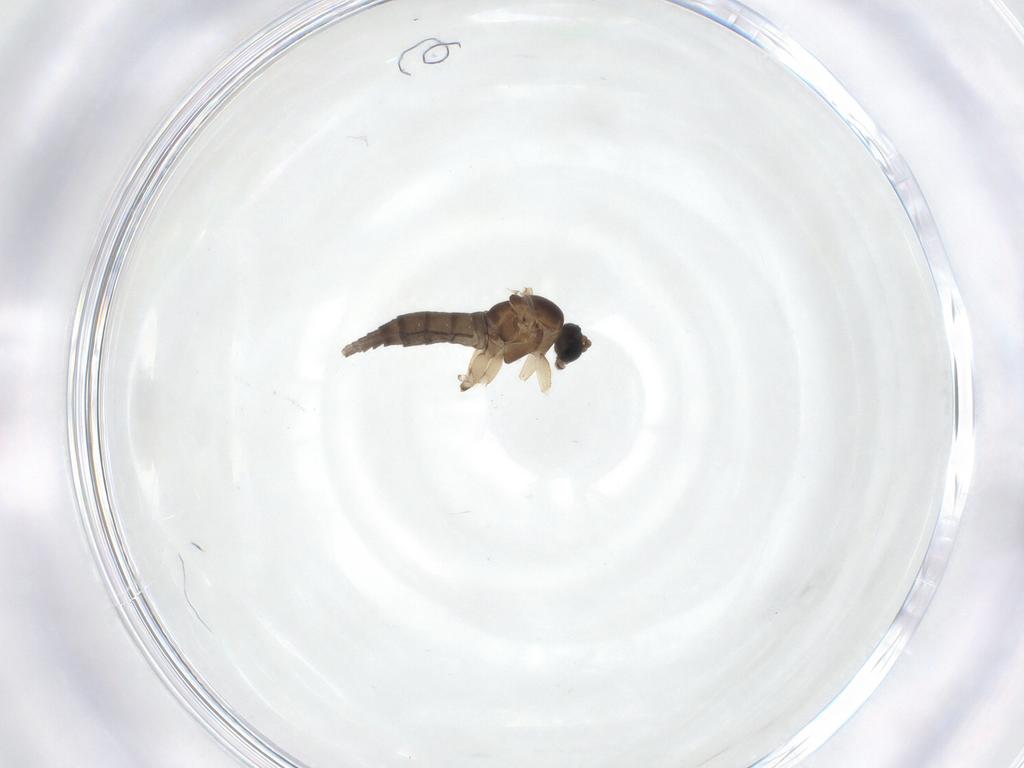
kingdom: Animalia
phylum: Arthropoda
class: Insecta
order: Diptera
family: Sciaridae
